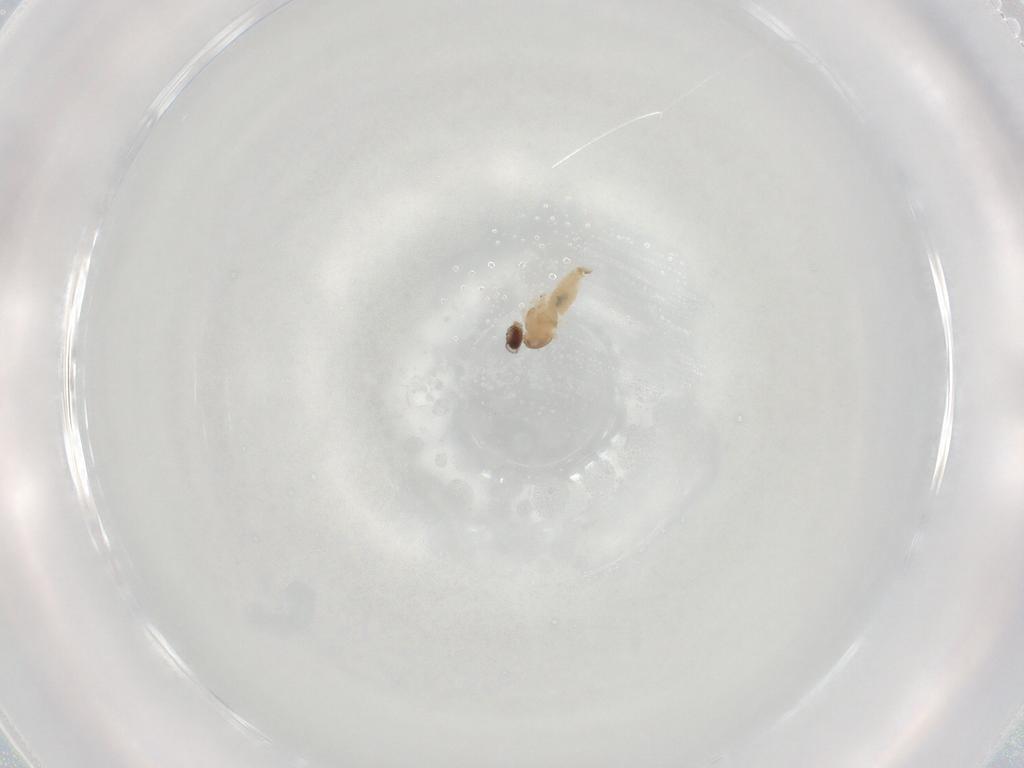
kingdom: Animalia
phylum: Arthropoda
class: Insecta
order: Diptera
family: Cecidomyiidae
